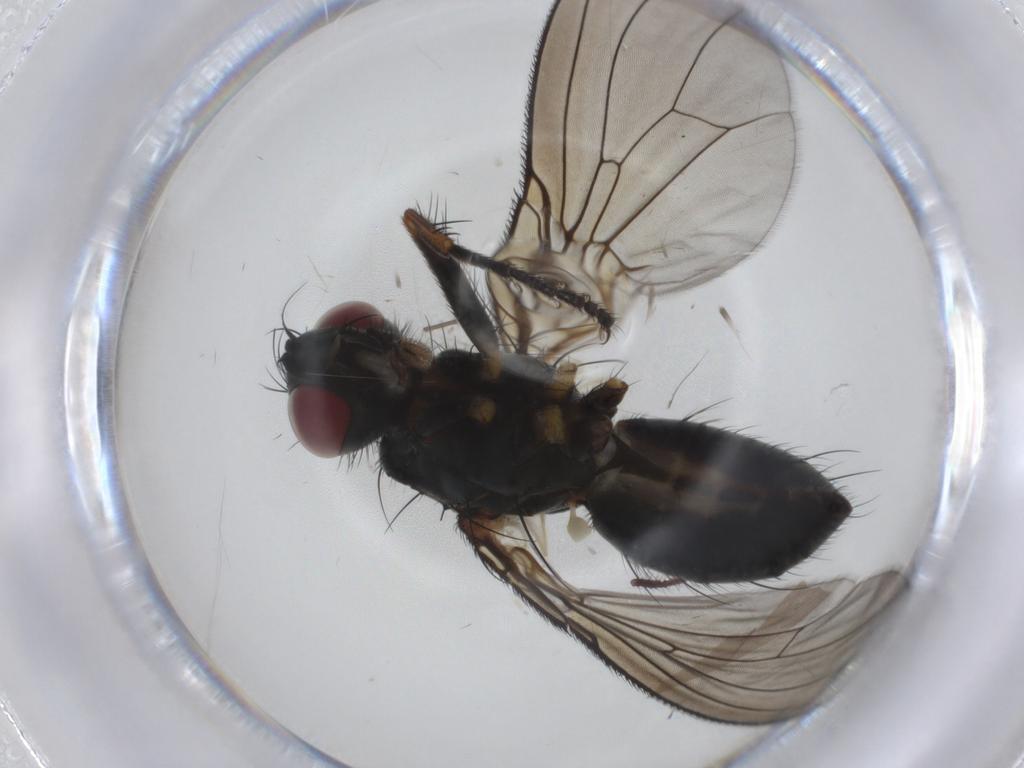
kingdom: Animalia
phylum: Arthropoda
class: Insecta
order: Diptera
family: Muscidae
